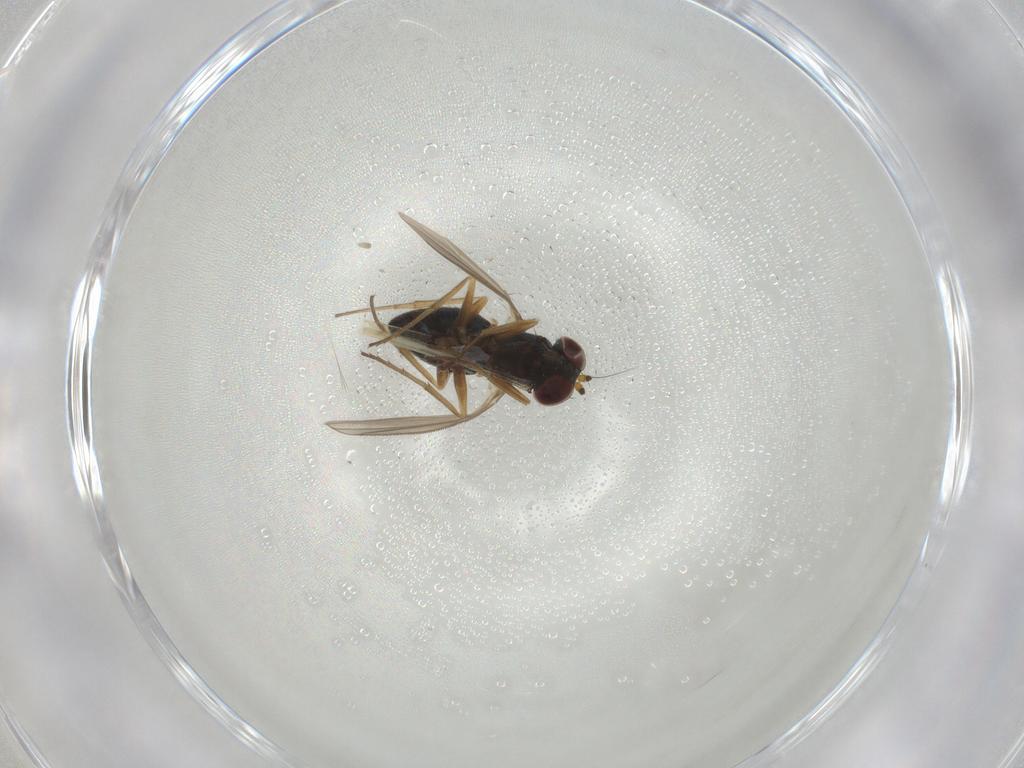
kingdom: Animalia
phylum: Arthropoda
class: Insecta
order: Diptera
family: Chironomidae
